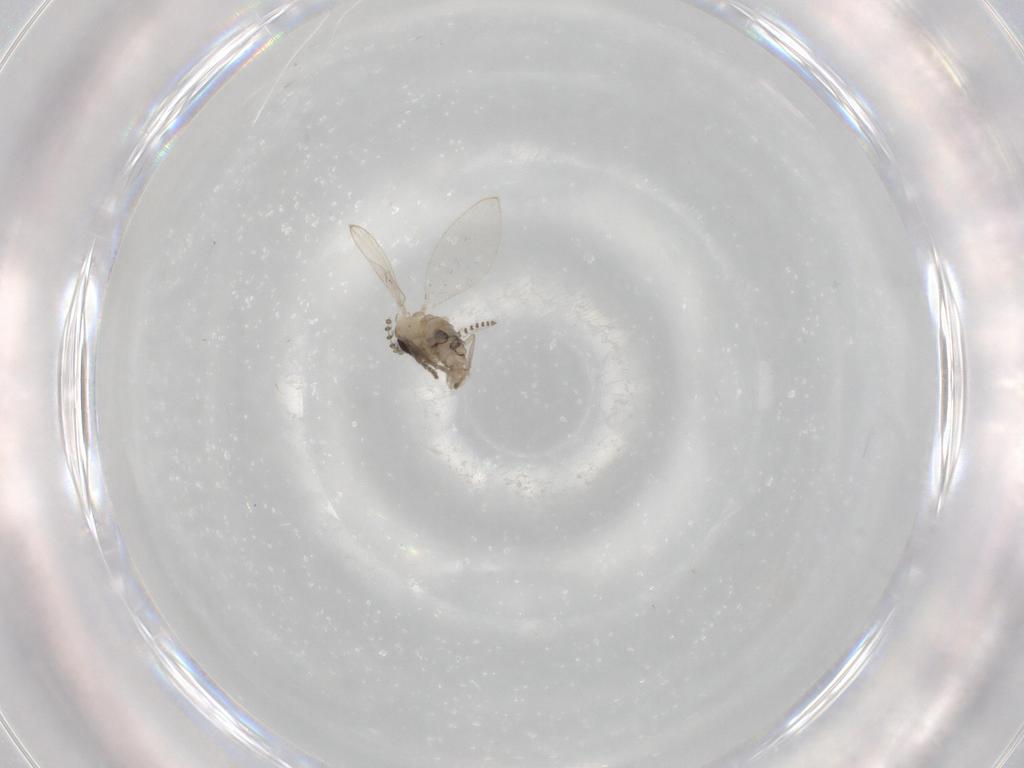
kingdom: Animalia
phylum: Arthropoda
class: Insecta
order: Diptera
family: Psychodidae
